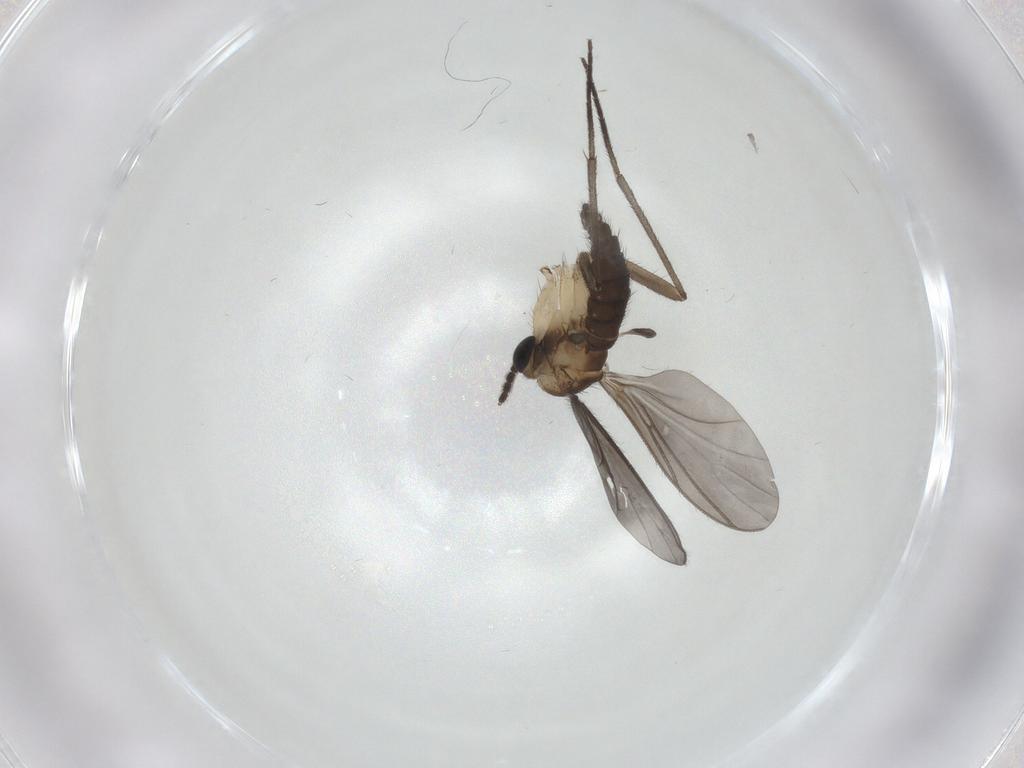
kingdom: Animalia
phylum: Arthropoda
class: Insecta
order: Diptera
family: Sciaridae
